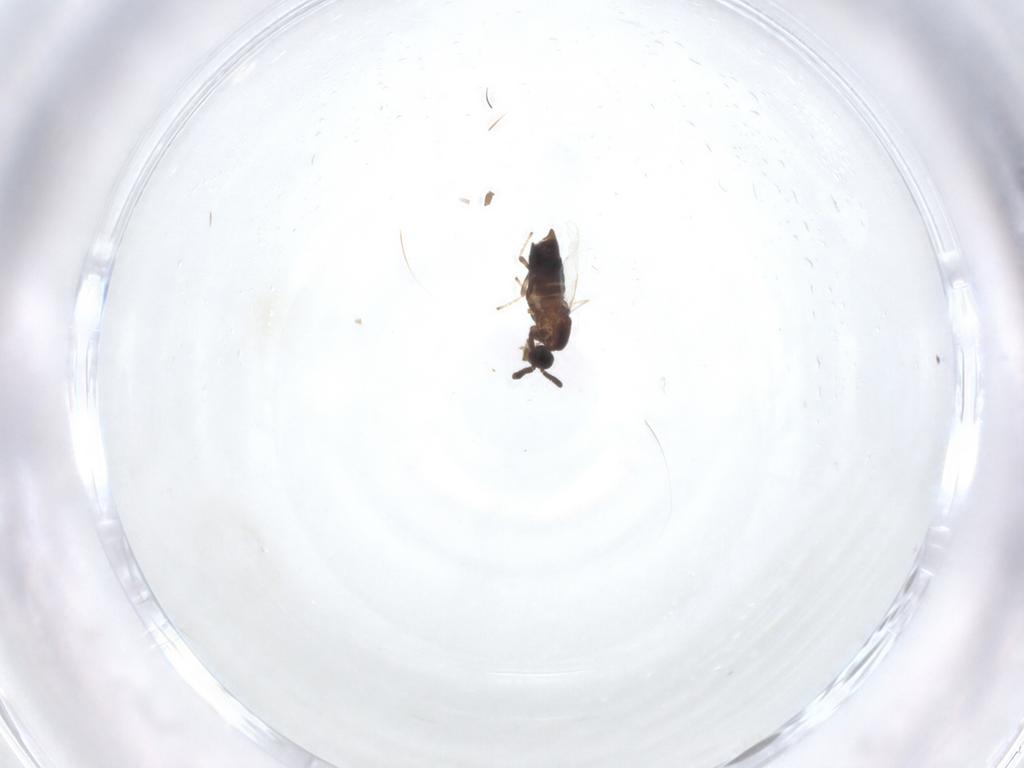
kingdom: Animalia
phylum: Arthropoda
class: Insecta
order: Diptera
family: Scatopsidae
